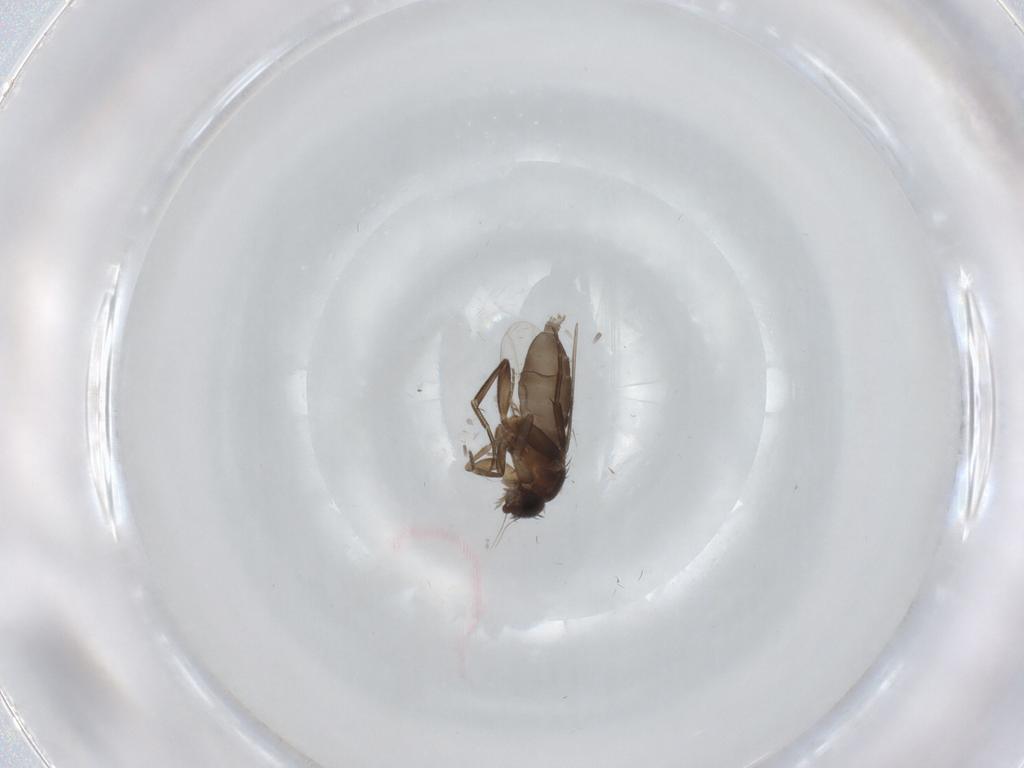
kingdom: Animalia
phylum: Arthropoda
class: Insecta
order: Diptera
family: Phoridae
